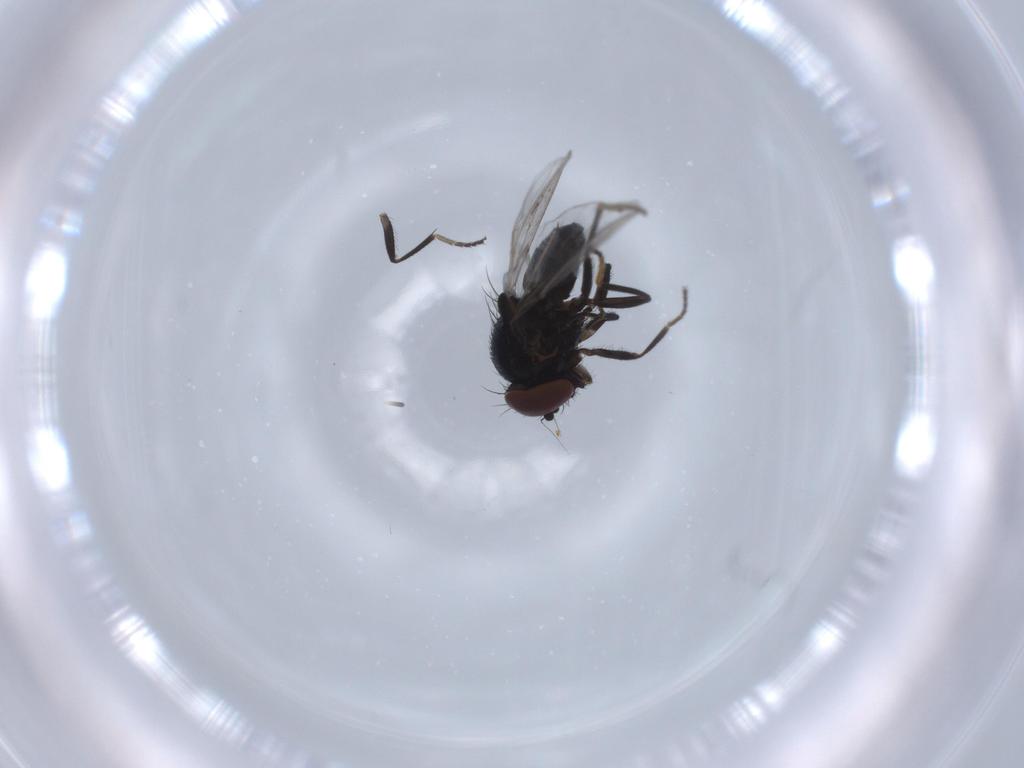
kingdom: Animalia
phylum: Arthropoda
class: Insecta
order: Diptera
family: Milichiidae
